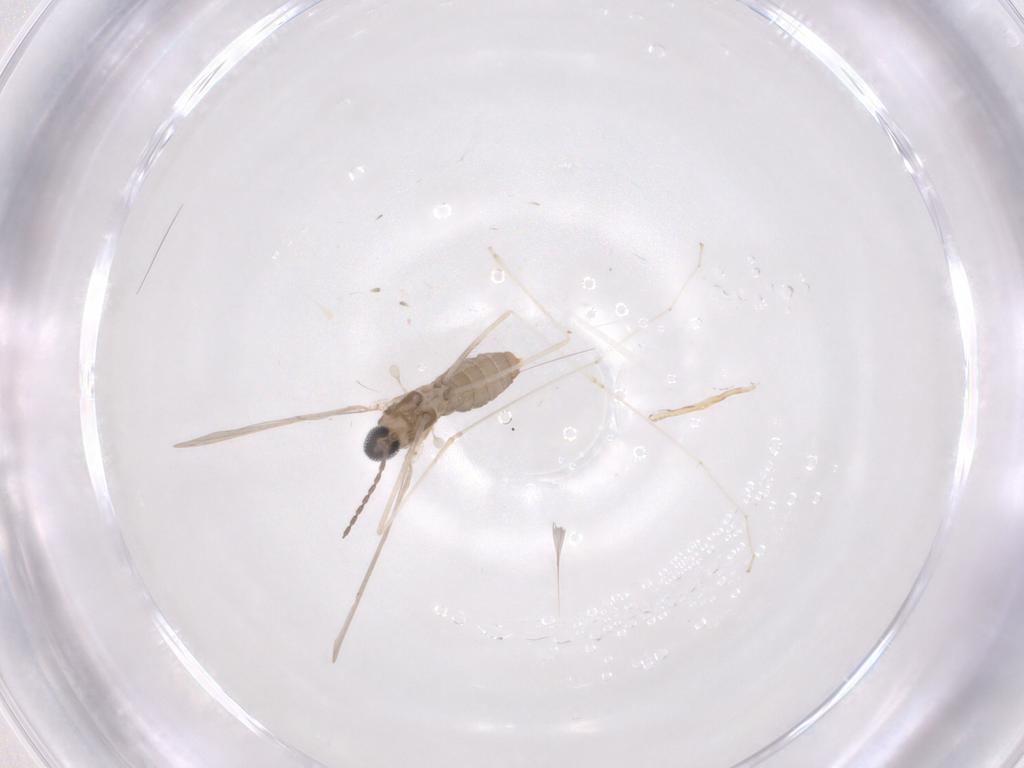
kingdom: Animalia
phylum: Arthropoda
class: Insecta
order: Diptera
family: Cecidomyiidae
